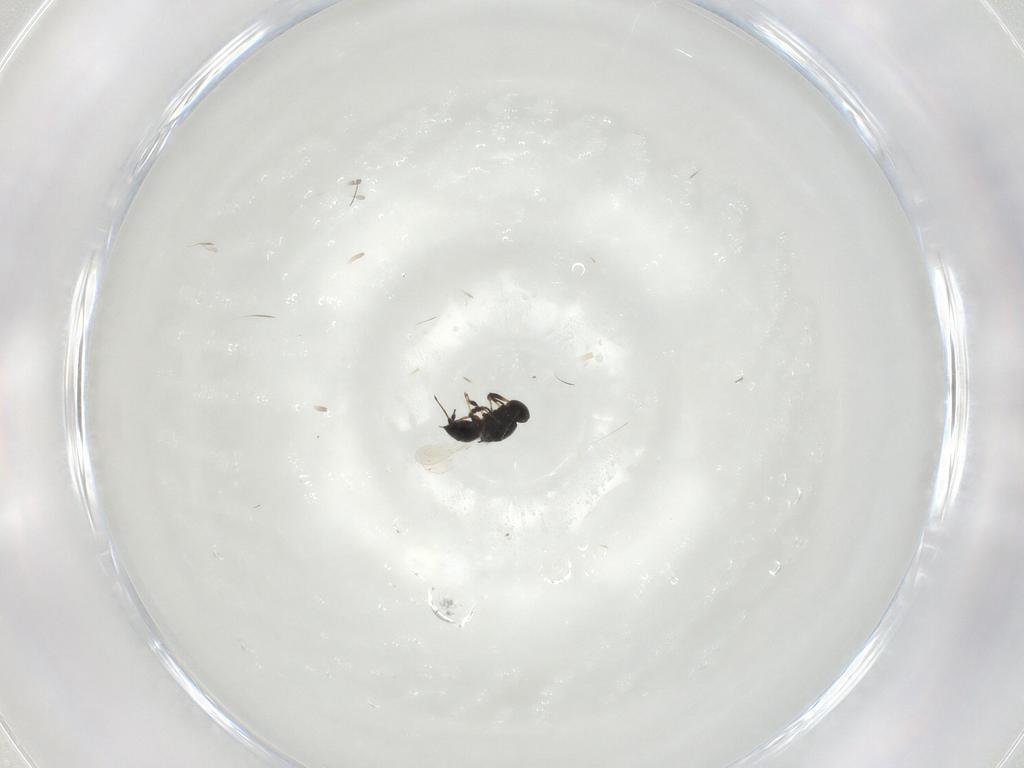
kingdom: Animalia
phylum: Arthropoda
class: Insecta
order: Hymenoptera
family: Platygastridae
